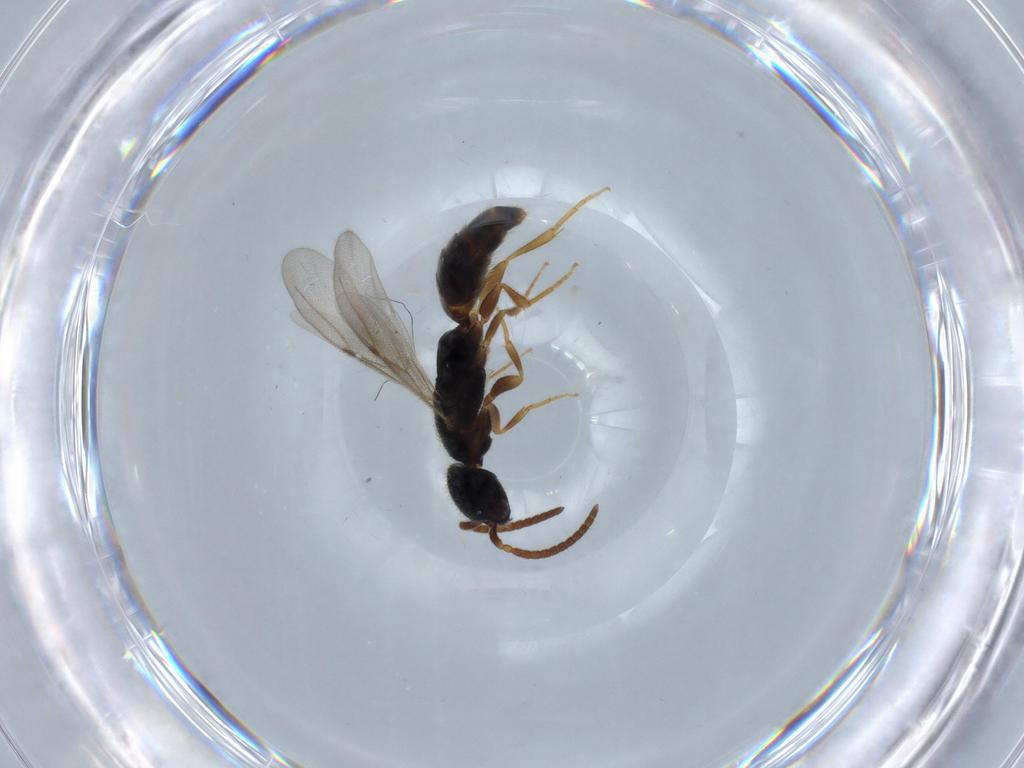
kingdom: Animalia
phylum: Arthropoda
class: Insecta
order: Hymenoptera
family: Bethylidae
